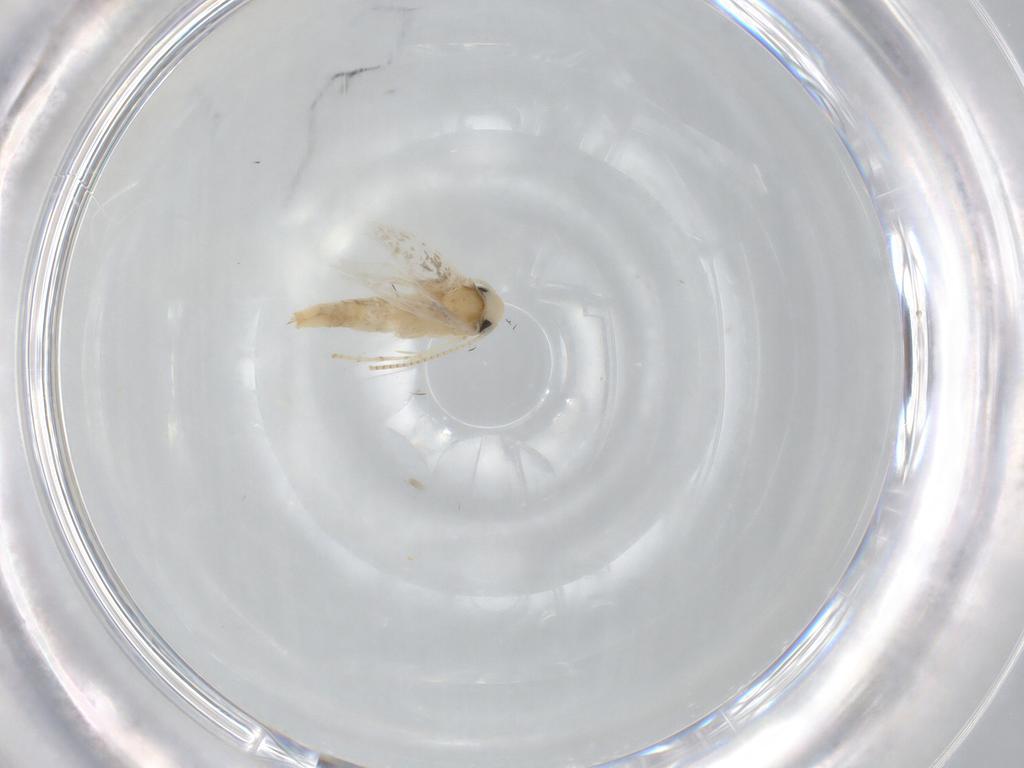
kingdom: Animalia
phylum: Arthropoda
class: Insecta
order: Lepidoptera
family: Gracillariidae
